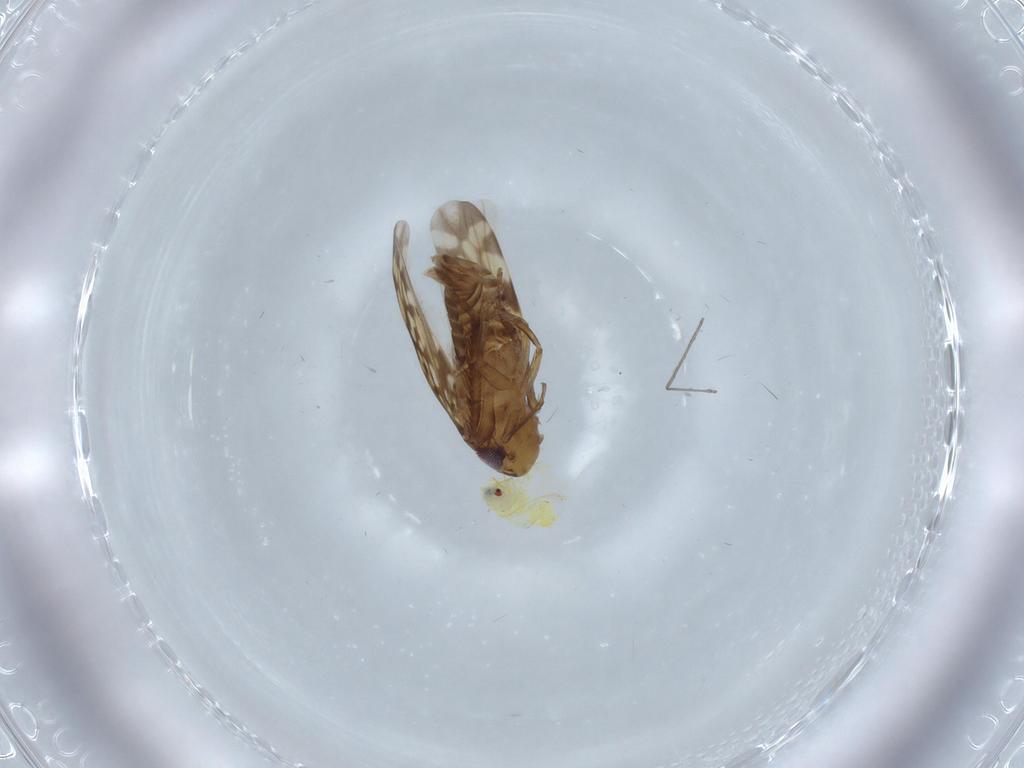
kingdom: Animalia
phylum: Arthropoda
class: Insecta
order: Hemiptera
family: Aleyrodidae
